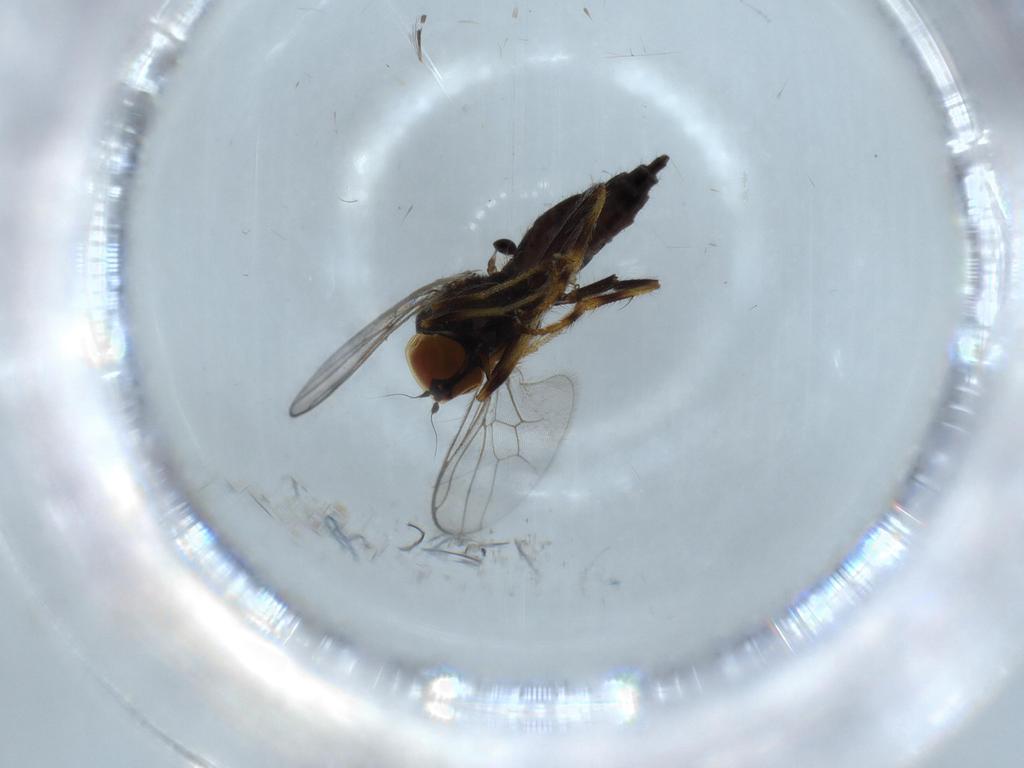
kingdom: Animalia
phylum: Arthropoda
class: Insecta
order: Diptera
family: Hybotidae
